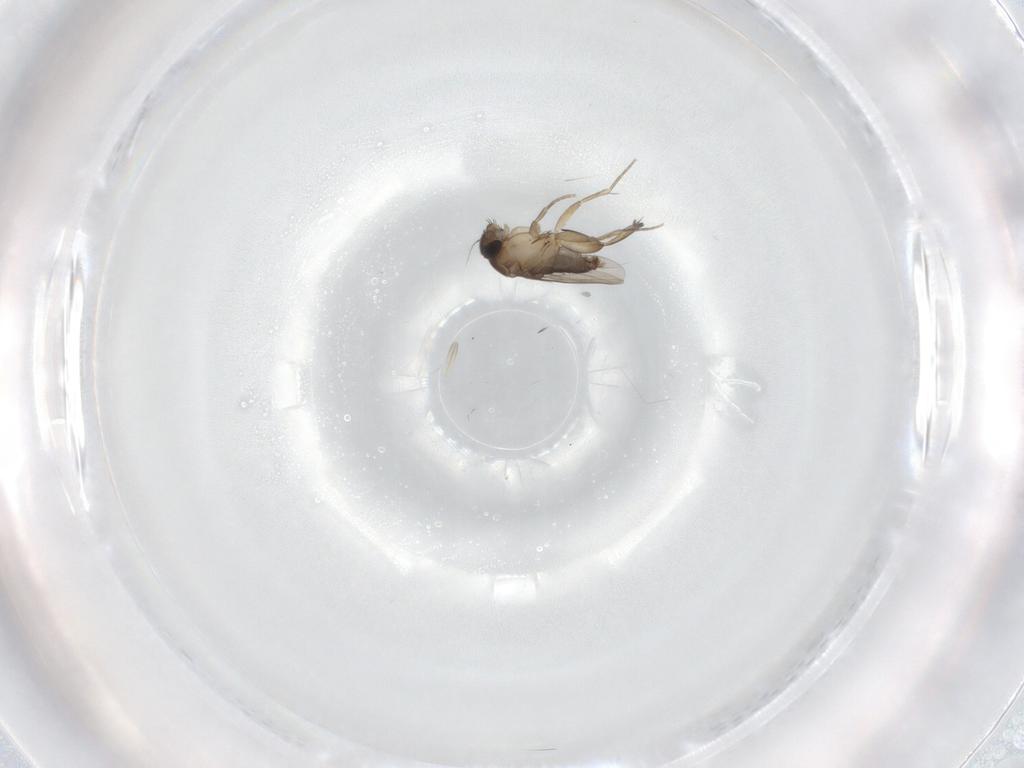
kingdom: Animalia
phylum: Arthropoda
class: Insecta
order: Diptera
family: Phoridae
